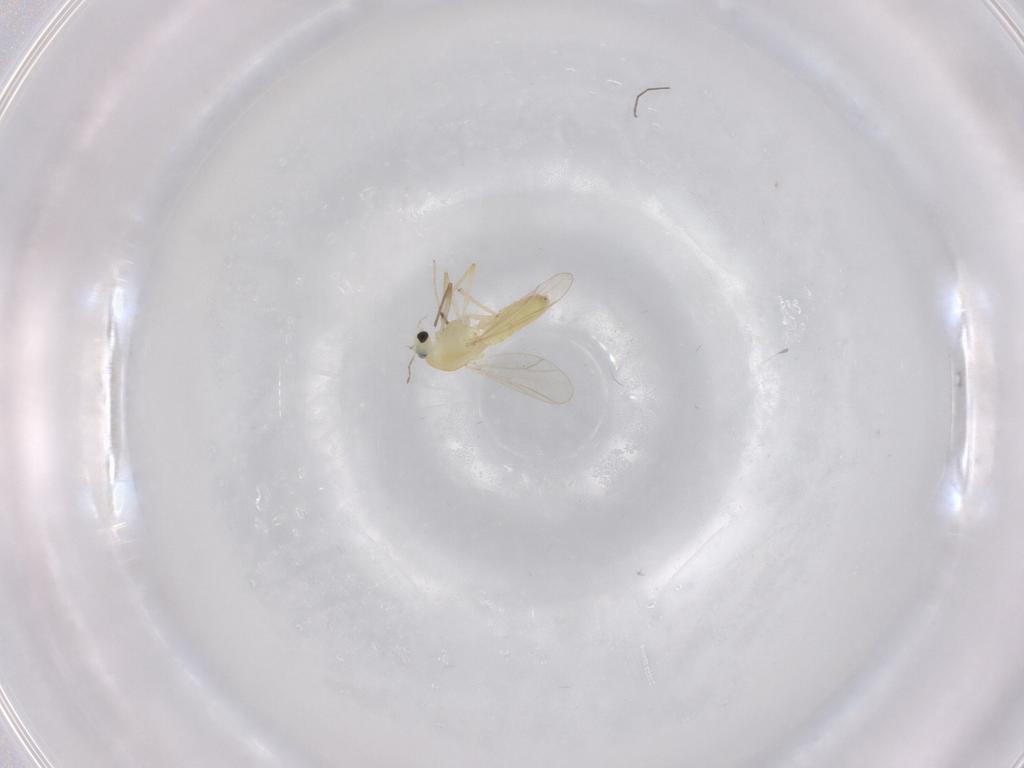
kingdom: Animalia
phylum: Arthropoda
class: Insecta
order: Diptera
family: Chironomidae
